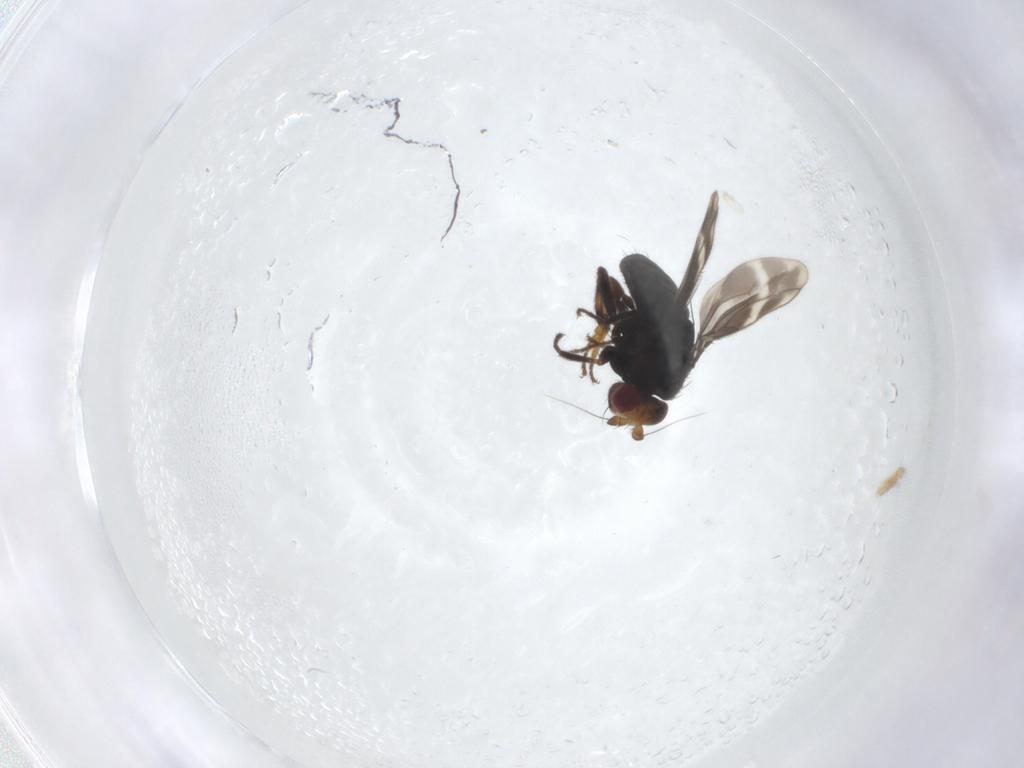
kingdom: Animalia
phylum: Arthropoda
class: Insecta
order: Diptera
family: Sphaeroceridae
